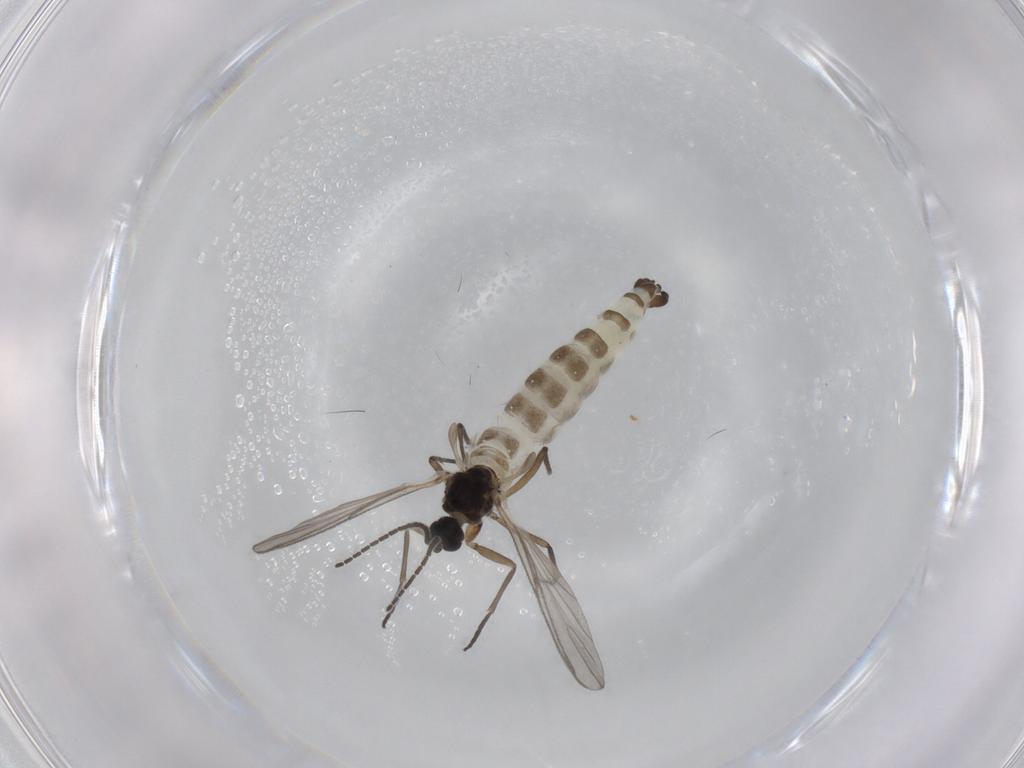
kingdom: Animalia
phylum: Arthropoda
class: Insecta
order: Diptera
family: Sciaridae
